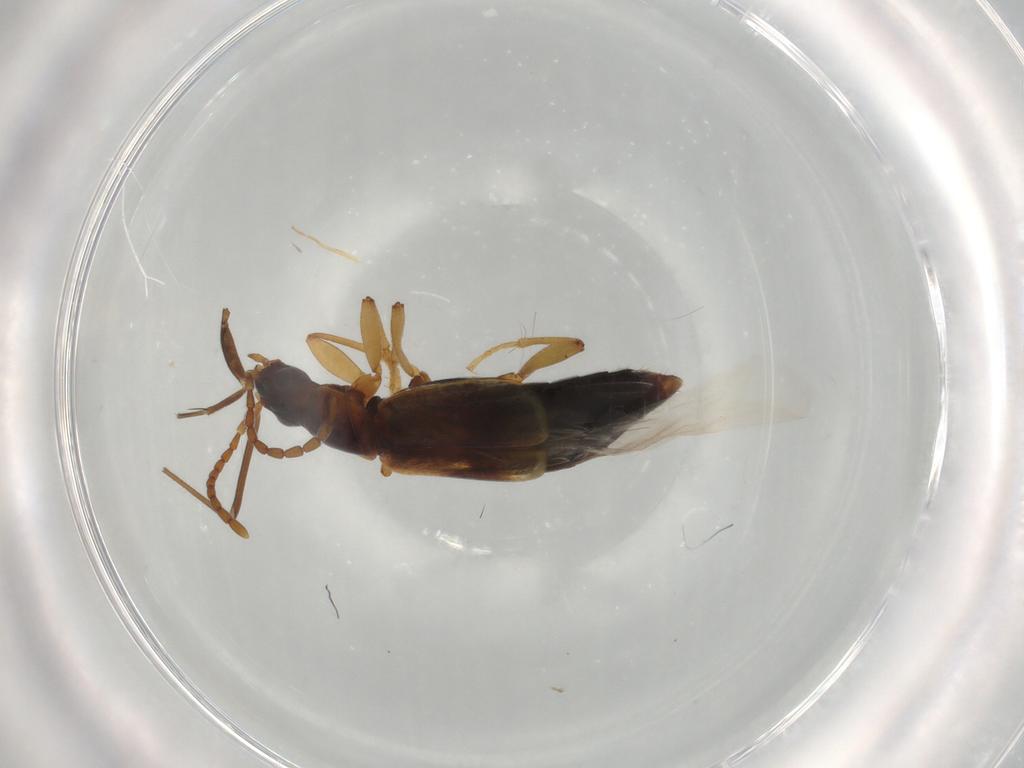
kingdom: Animalia
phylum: Arthropoda
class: Insecta
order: Coleoptera
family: Staphylinidae
